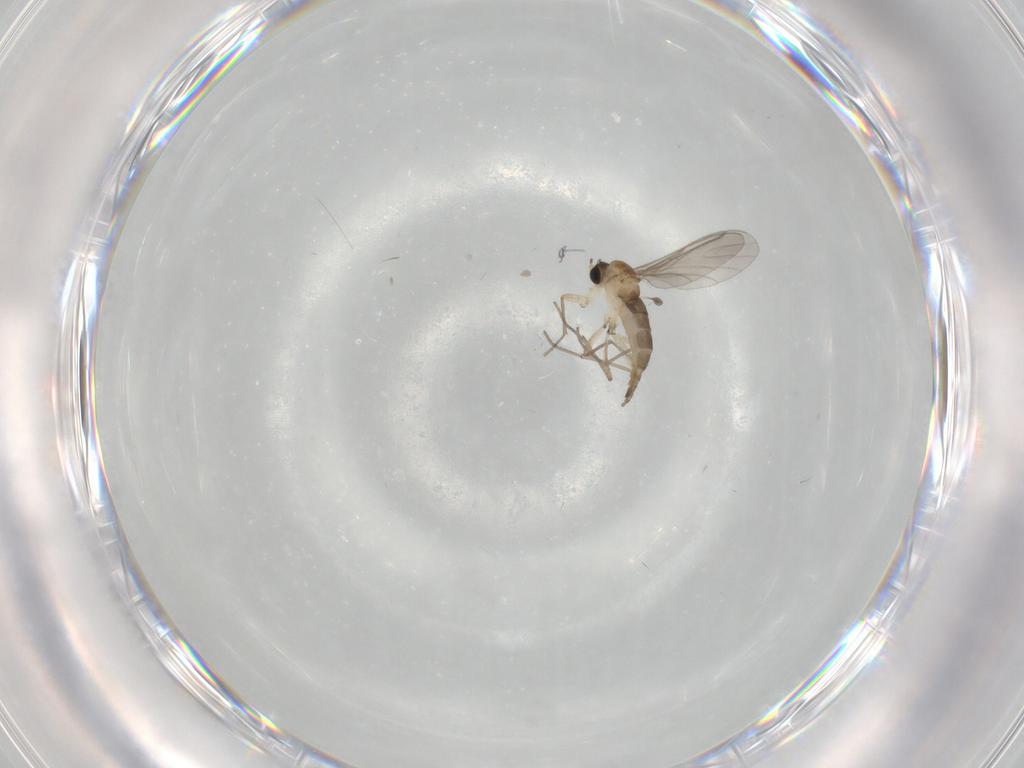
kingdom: Animalia
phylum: Arthropoda
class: Insecta
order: Diptera
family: Sciaridae
